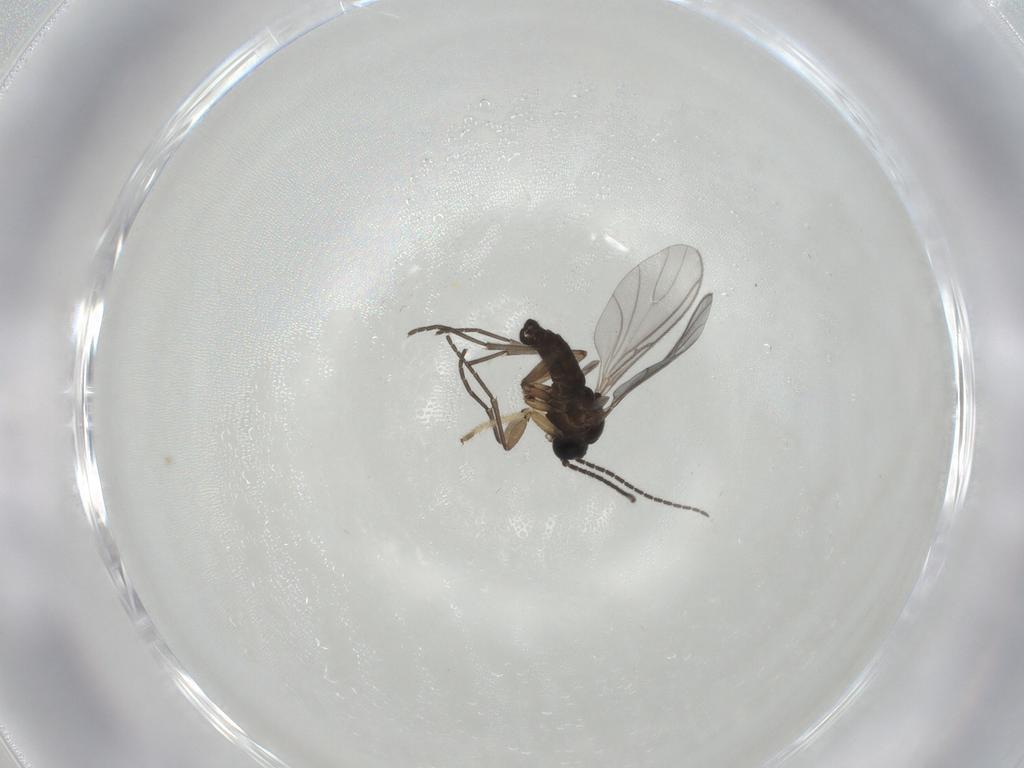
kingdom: Animalia
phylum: Arthropoda
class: Insecta
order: Diptera
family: Sciaridae
